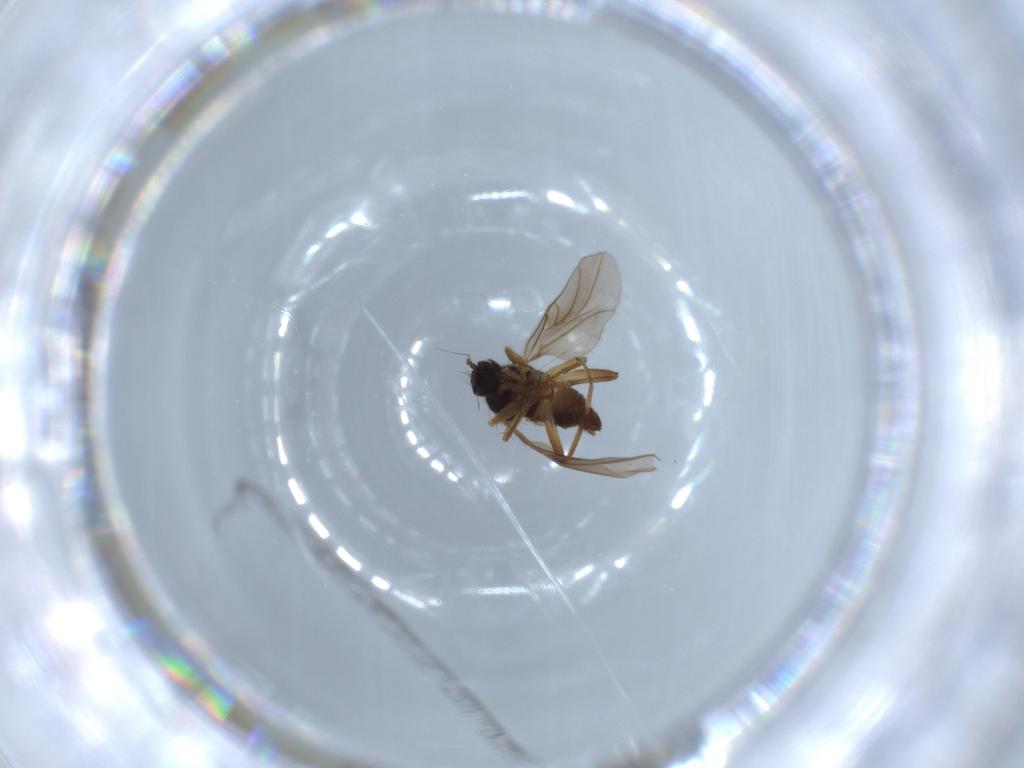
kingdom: Animalia
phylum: Arthropoda
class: Insecta
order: Diptera
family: Hybotidae
